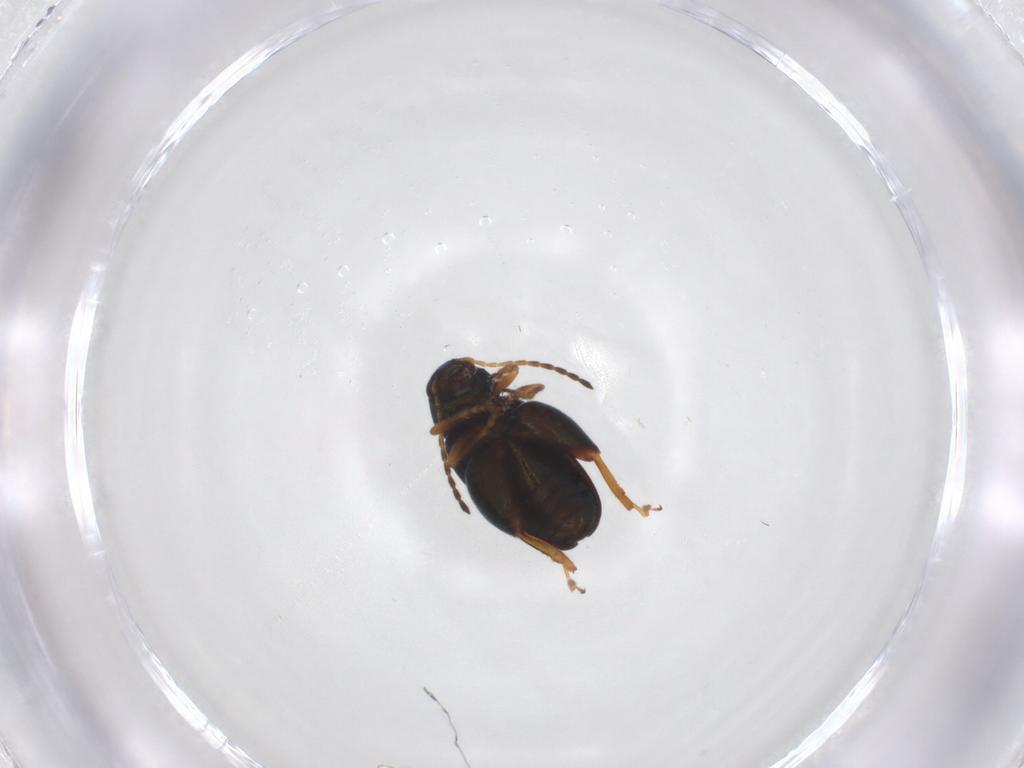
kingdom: Animalia
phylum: Arthropoda
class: Insecta
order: Coleoptera
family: Chrysomelidae
